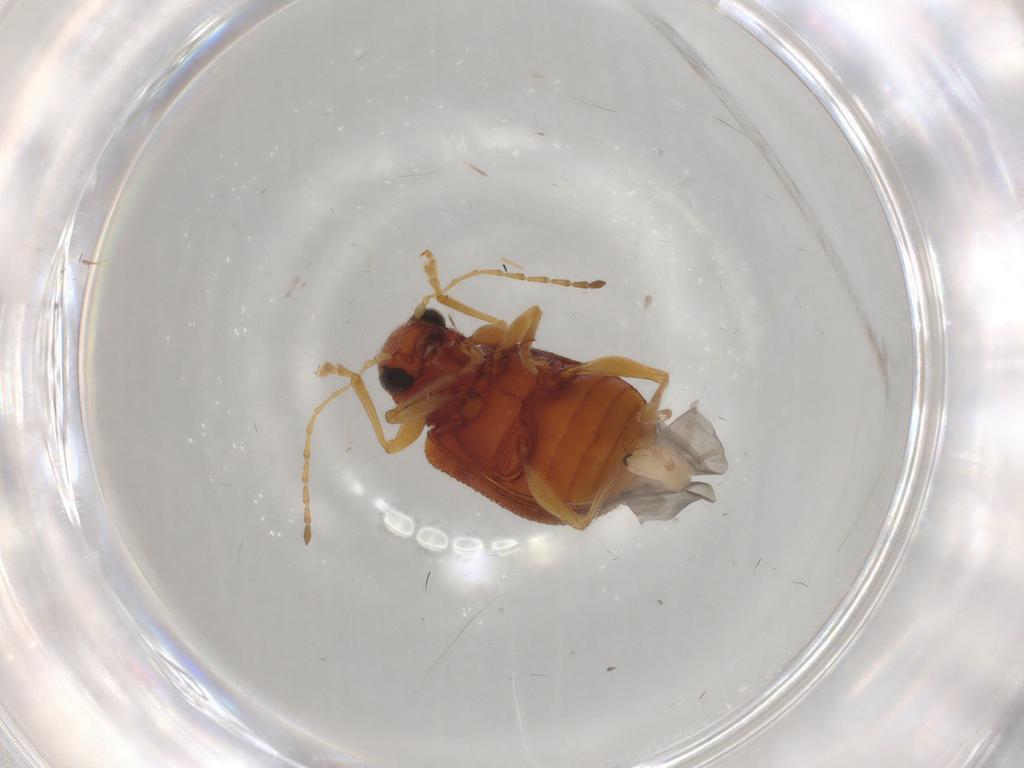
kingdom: Animalia
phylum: Arthropoda
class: Insecta
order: Coleoptera
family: Chrysomelidae
